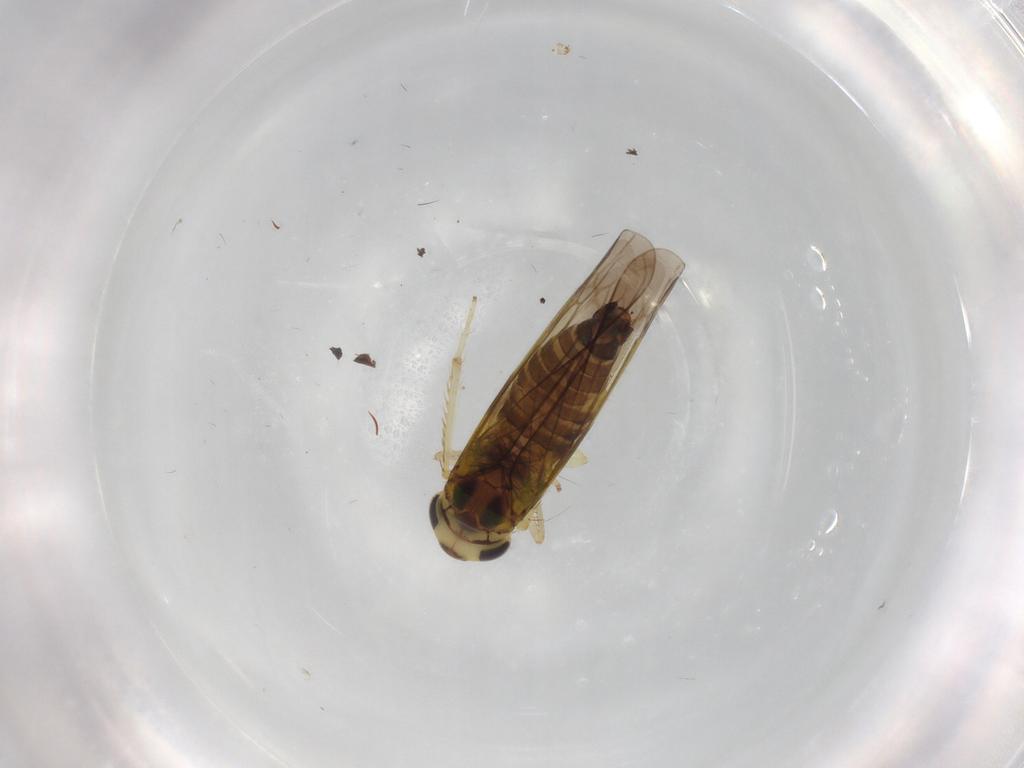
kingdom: Animalia
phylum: Arthropoda
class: Insecta
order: Hemiptera
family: Cicadellidae
